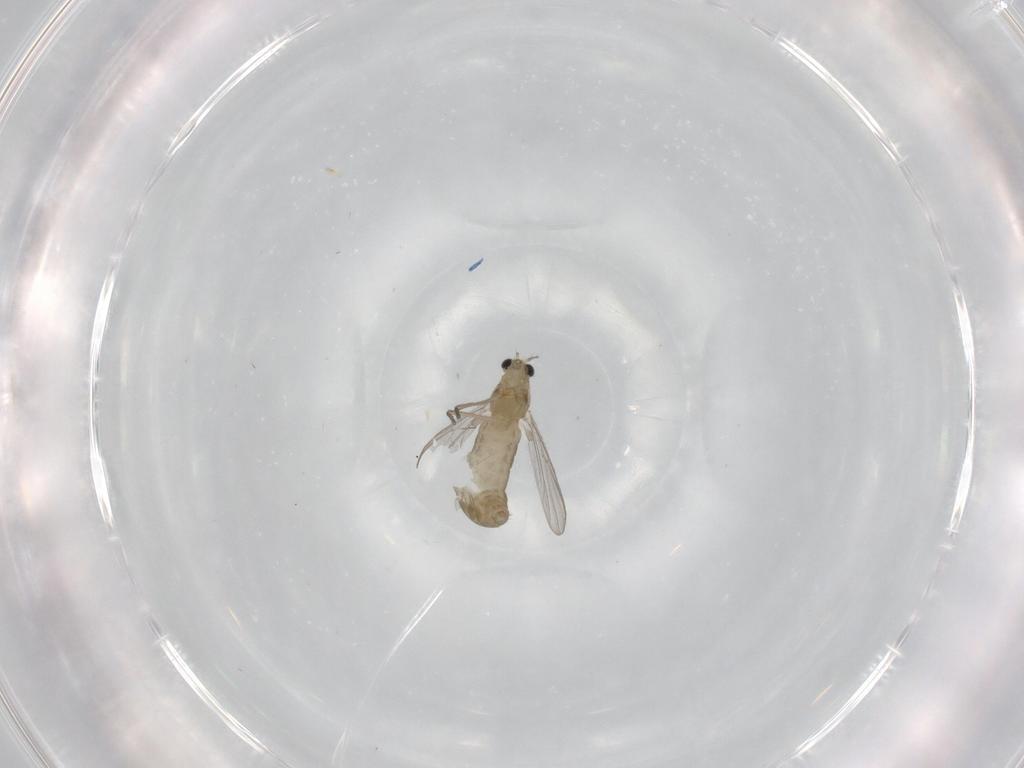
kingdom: Animalia
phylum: Arthropoda
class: Insecta
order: Diptera
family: Chironomidae
